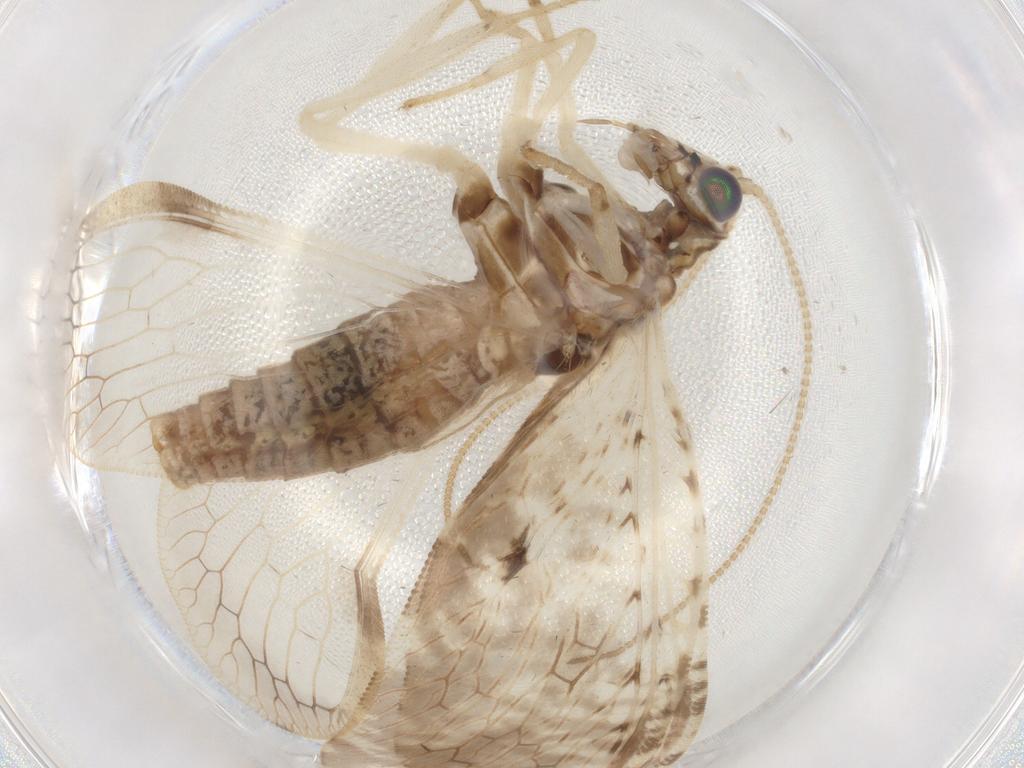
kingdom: Animalia
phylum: Arthropoda
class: Insecta
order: Neuroptera
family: Hemerobiidae
